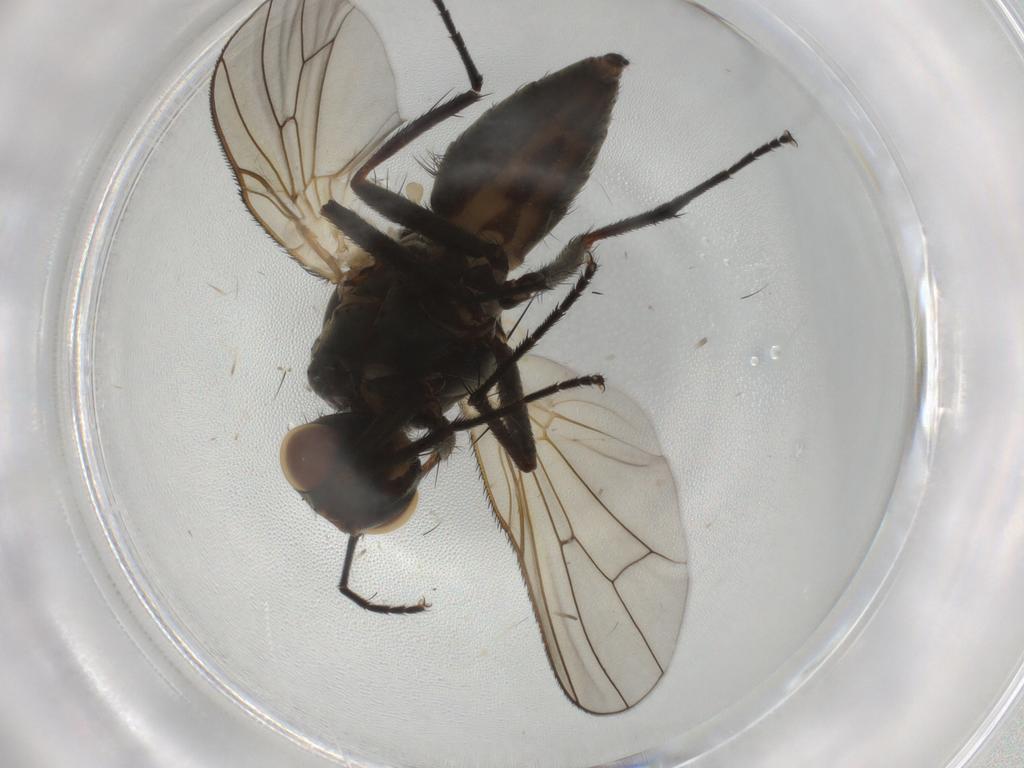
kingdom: Animalia
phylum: Arthropoda
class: Insecta
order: Diptera
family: Anthomyiidae
